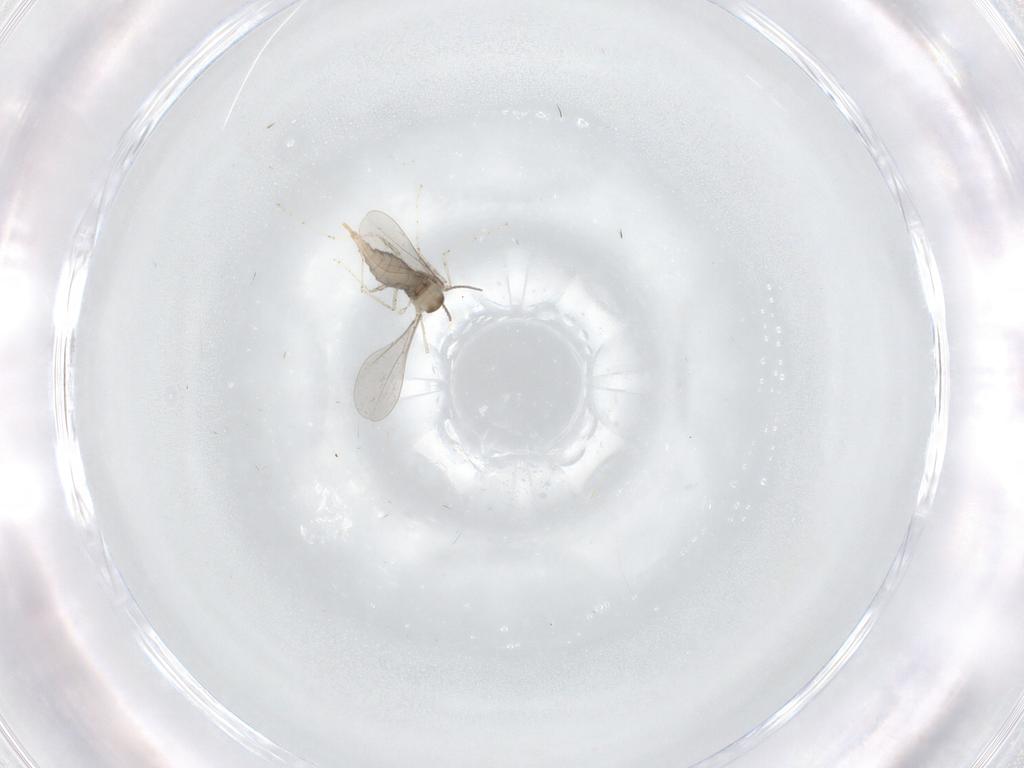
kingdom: Animalia
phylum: Arthropoda
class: Insecta
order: Diptera
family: Cecidomyiidae
